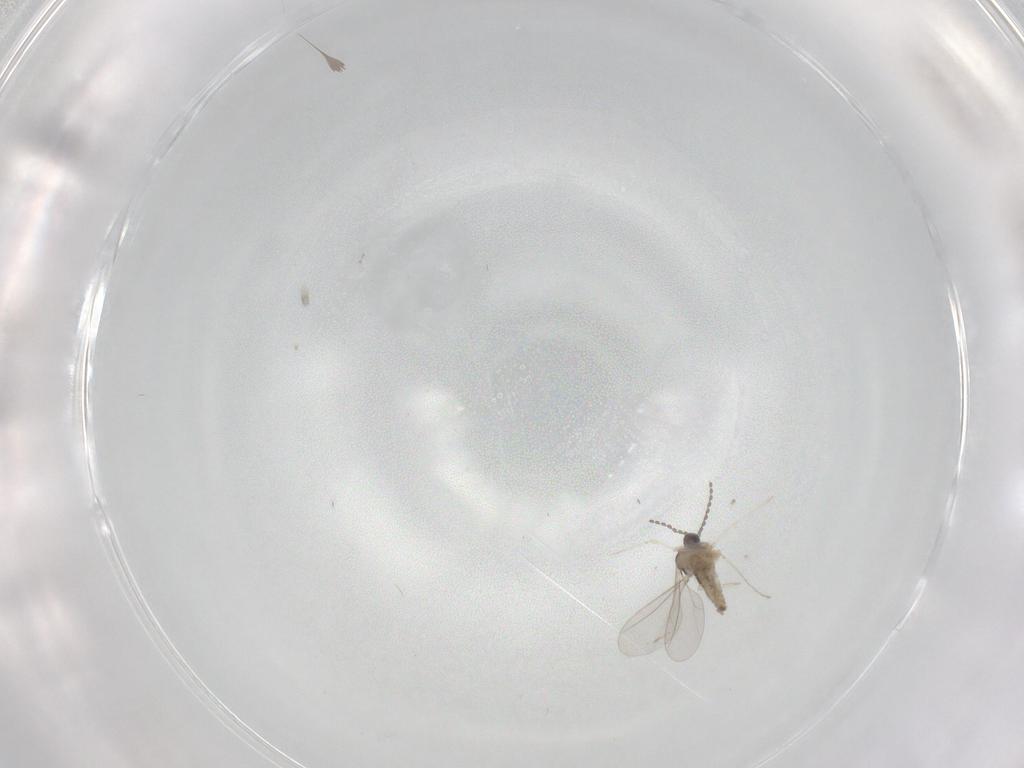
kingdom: Animalia
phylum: Arthropoda
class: Insecta
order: Diptera
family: Cecidomyiidae
